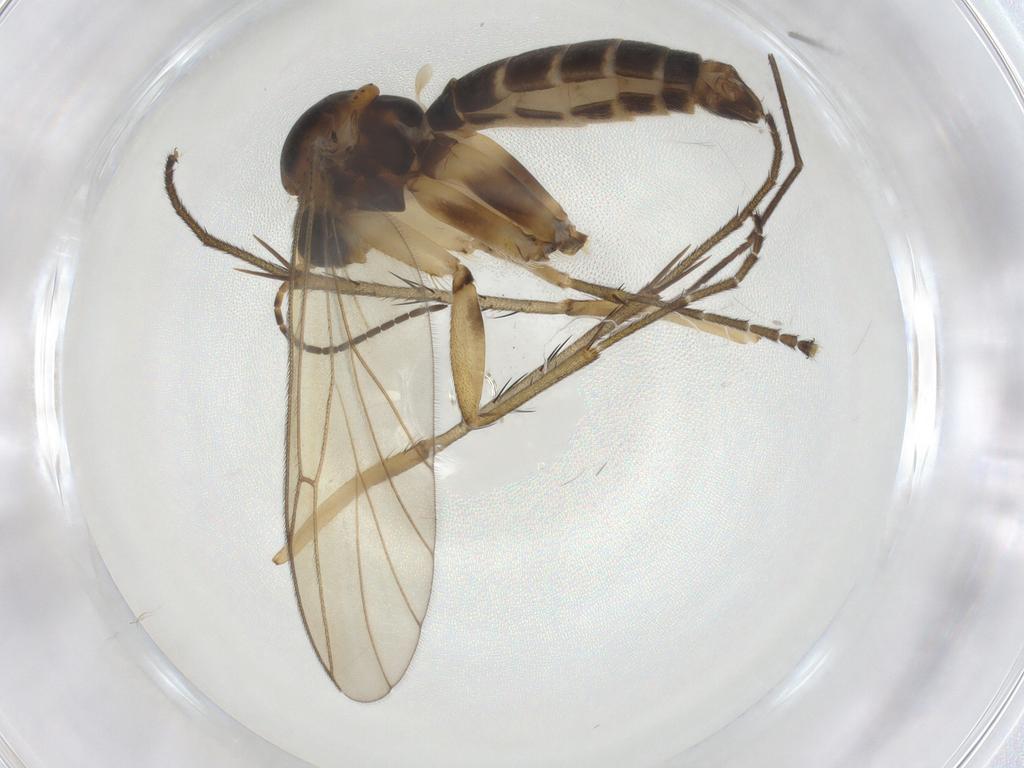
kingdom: Animalia
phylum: Arthropoda
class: Insecta
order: Diptera
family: Mycetophilidae
